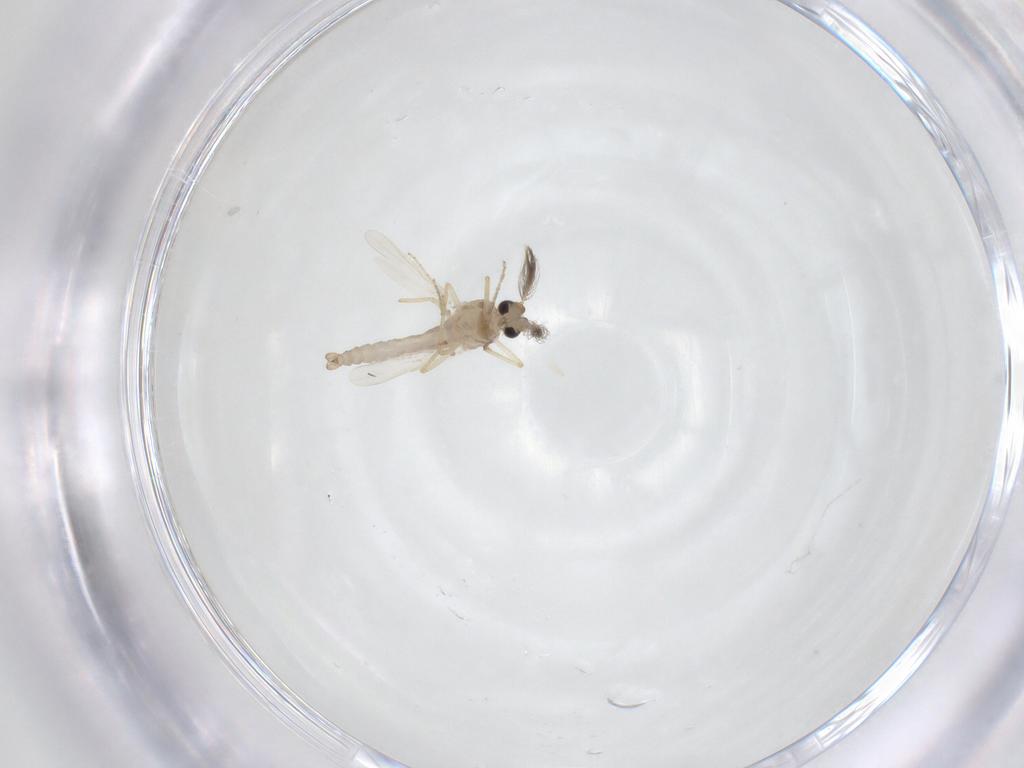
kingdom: Animalia
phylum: Arthropoda
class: Insecta
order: Diptera
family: Ceratopogonidae
